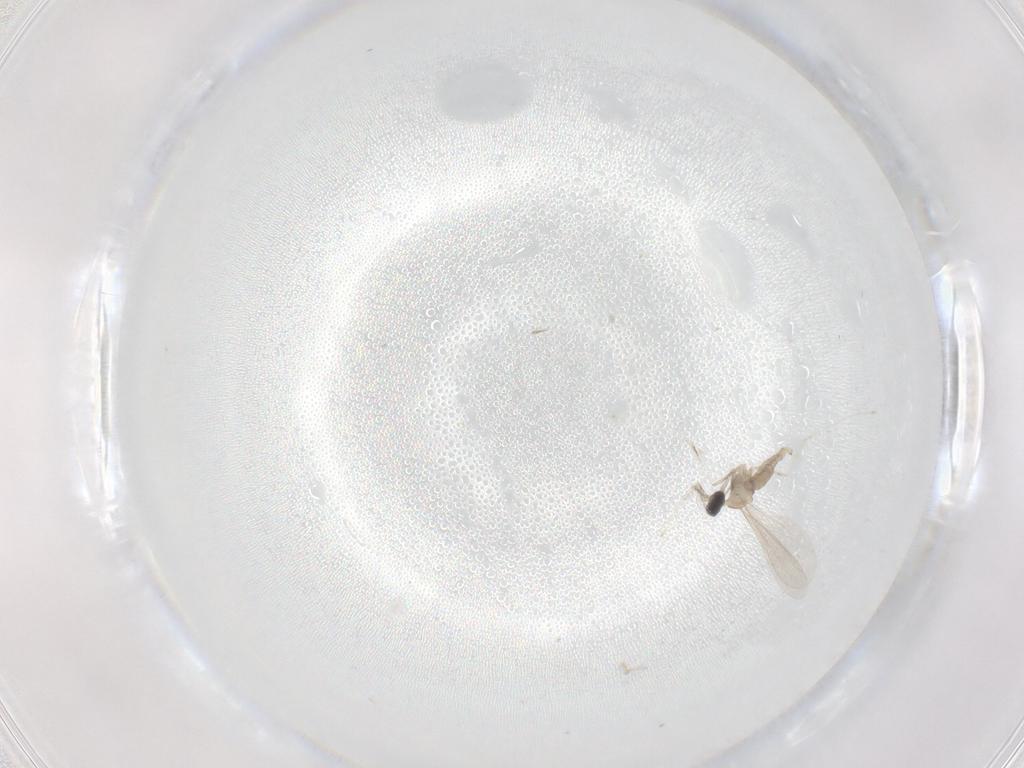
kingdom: Animalia
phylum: Arthropoda
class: Insecta
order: Diptera
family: Cecidomyiidae
